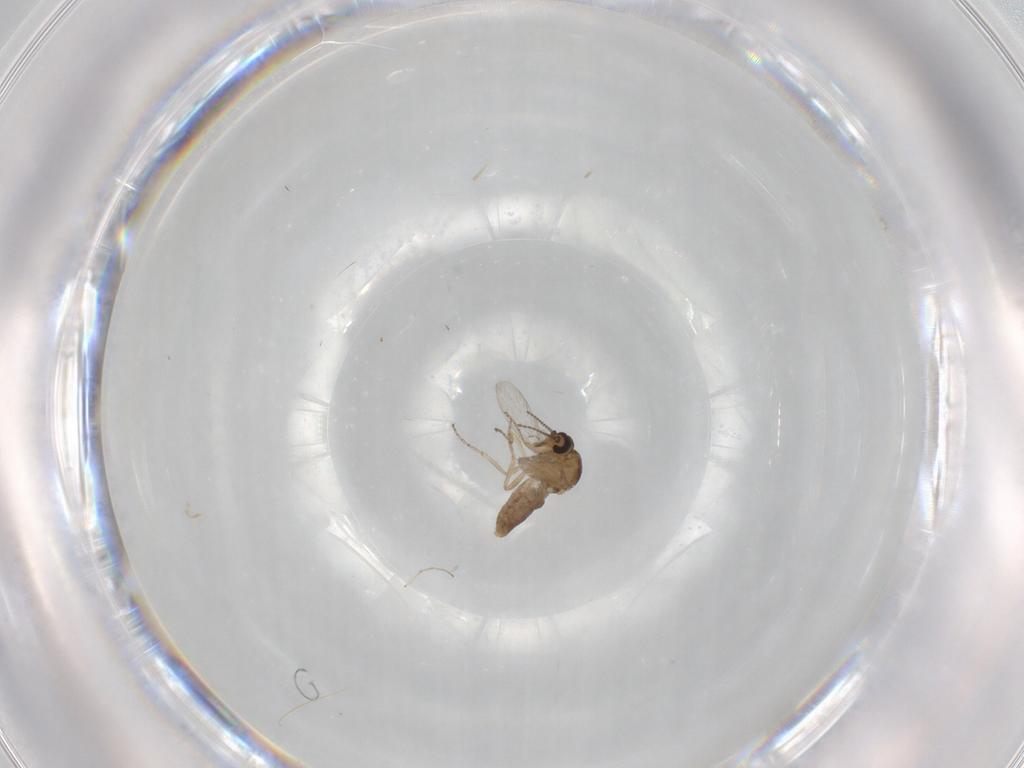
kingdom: Animalia
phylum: Arthropoda
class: Insecta
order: Diptera
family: Ceratopogonidae
